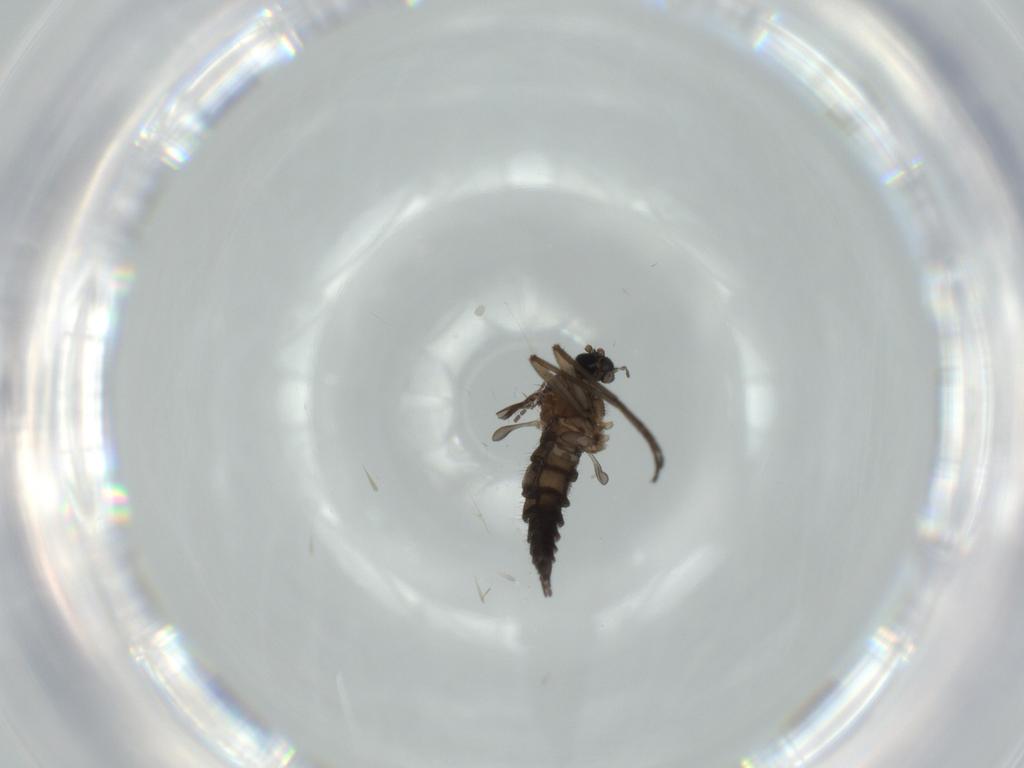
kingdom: Animalia
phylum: Arthropoda
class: Insecta
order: Diptera
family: Sciaridae
